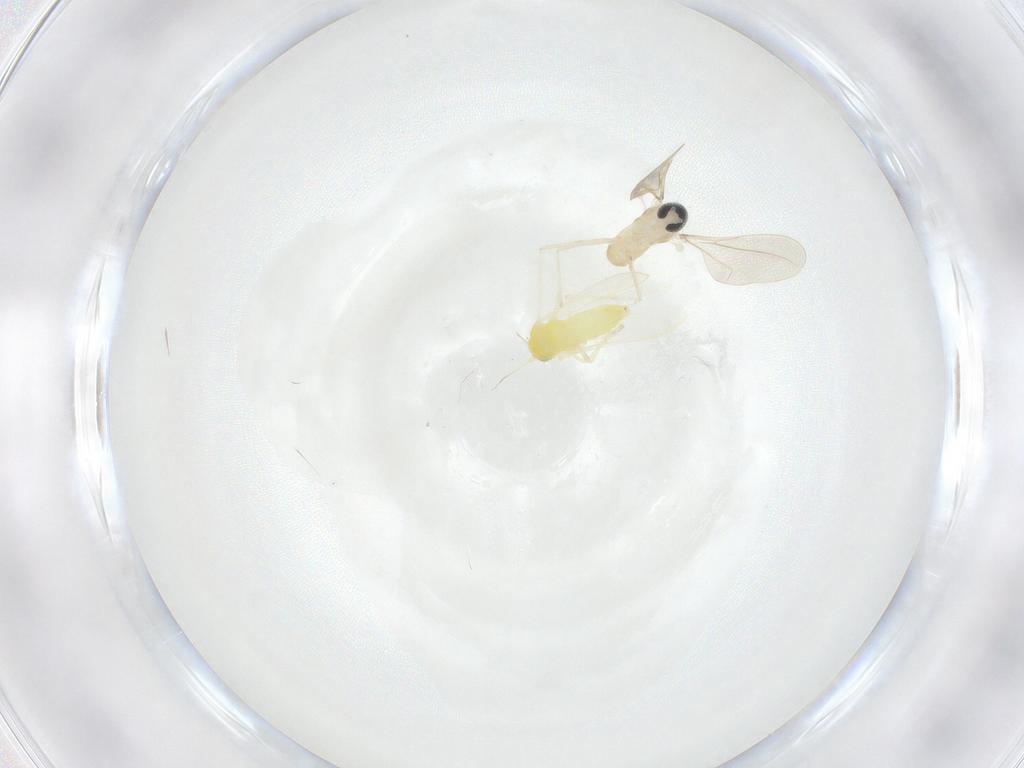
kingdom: Animalia
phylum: Arthropoda
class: Insecta
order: Diptera
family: Cecidomyiidae
